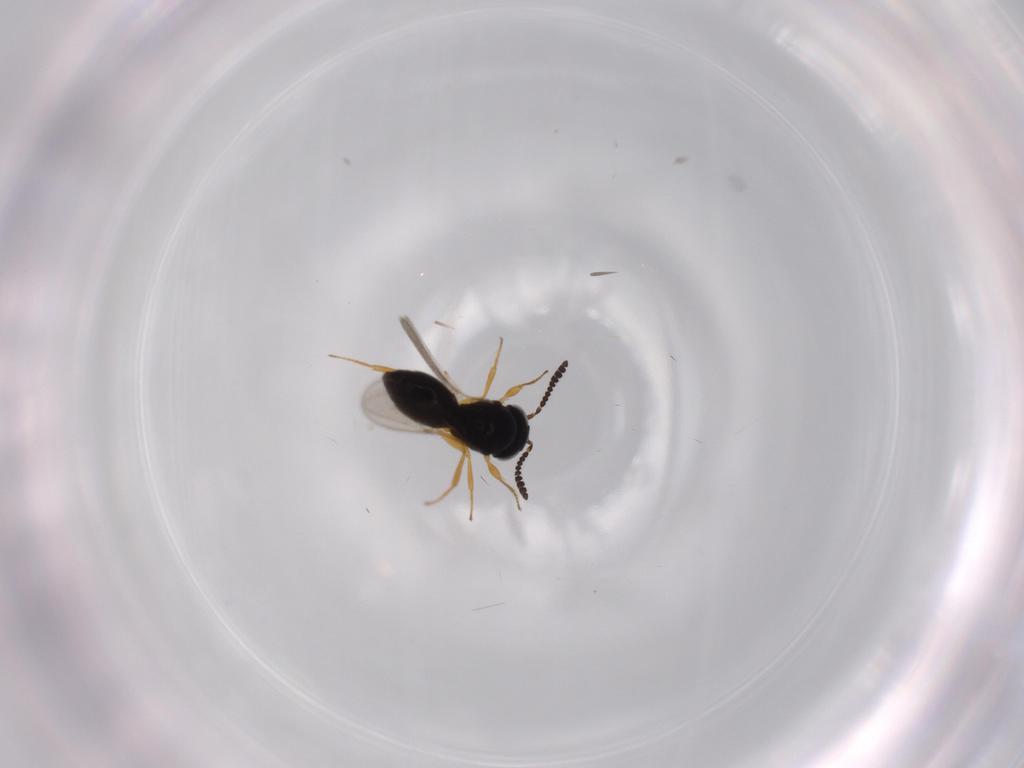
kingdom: Animalia
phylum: Arthropoda
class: Insecta
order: Hymenoptera
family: Scelionidae
